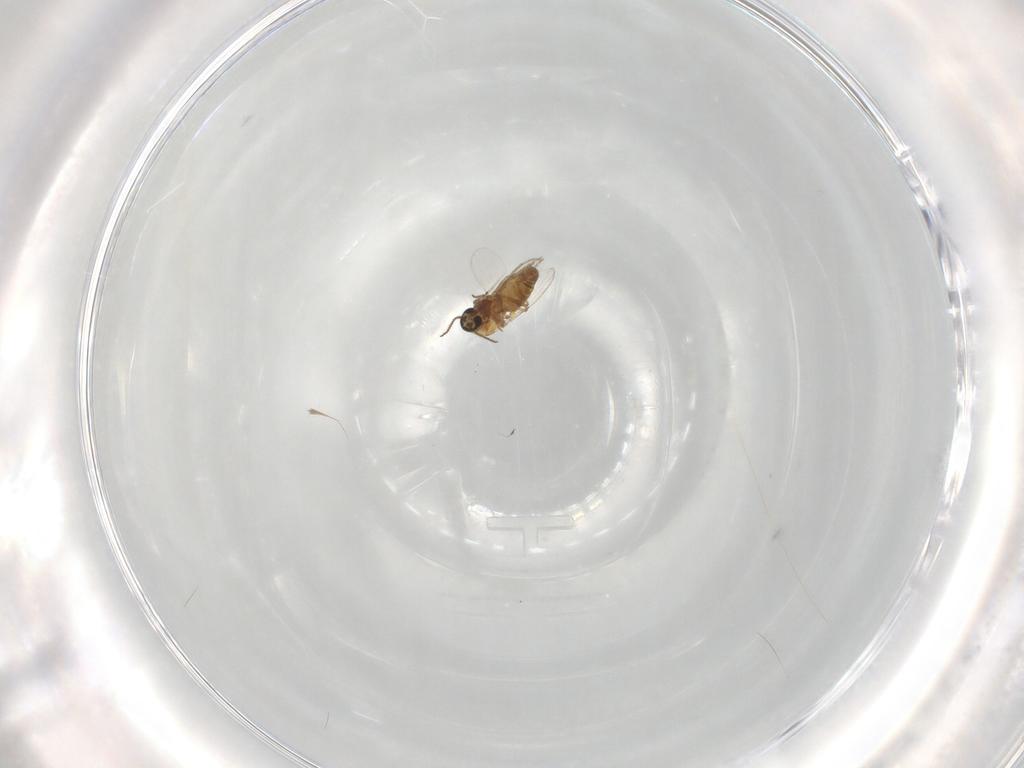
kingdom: Animalia
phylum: Arthropoda
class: Insecta
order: Diptera
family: Ceratopogonidae
